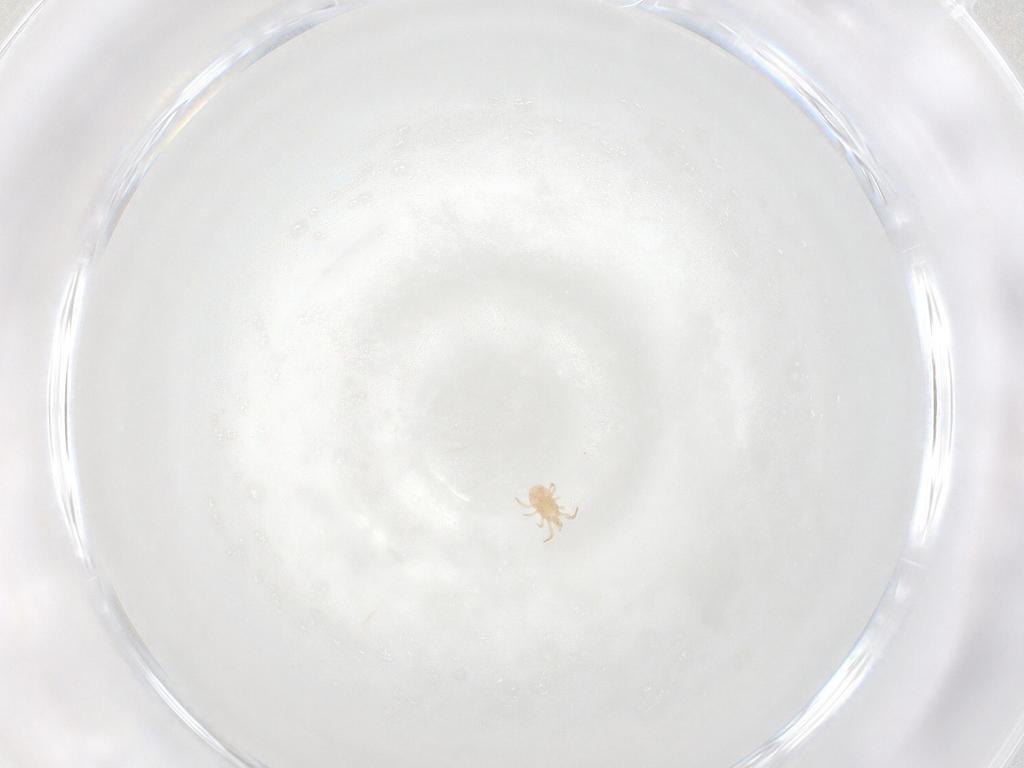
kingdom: Animalia
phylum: Arthropoda
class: Arachnida
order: Mesostigmata
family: Phytoseiidae
